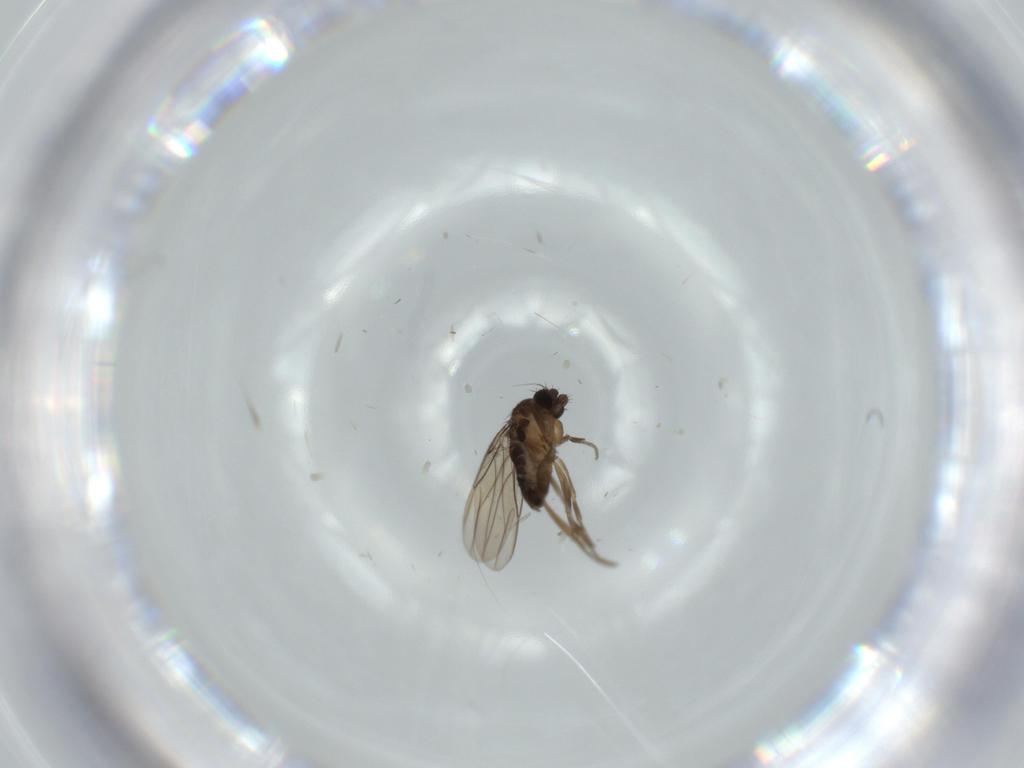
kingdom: Animalia
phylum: Arthropoda
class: Insecta
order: Diptera
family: Phoridae
